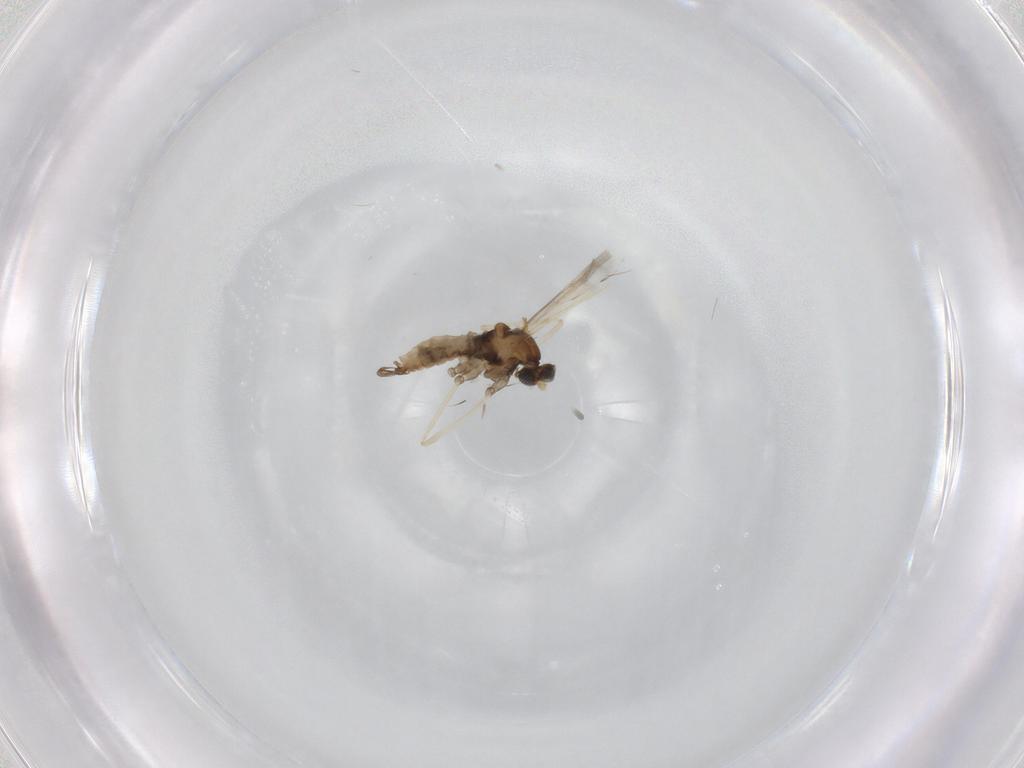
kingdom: Animalia
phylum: Arthropoda
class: Insecta
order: Diptera
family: Cecidomyiidae
